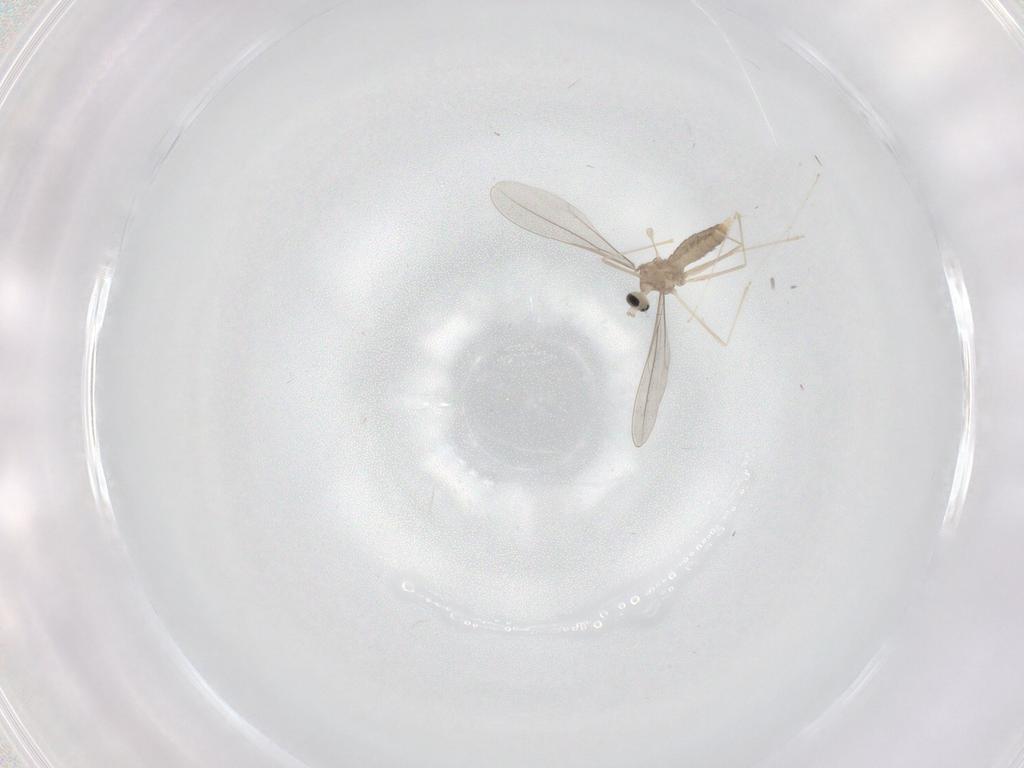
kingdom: Animalia
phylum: Arthropoda
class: Insecta
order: Diptera
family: Cecidomyiidae
